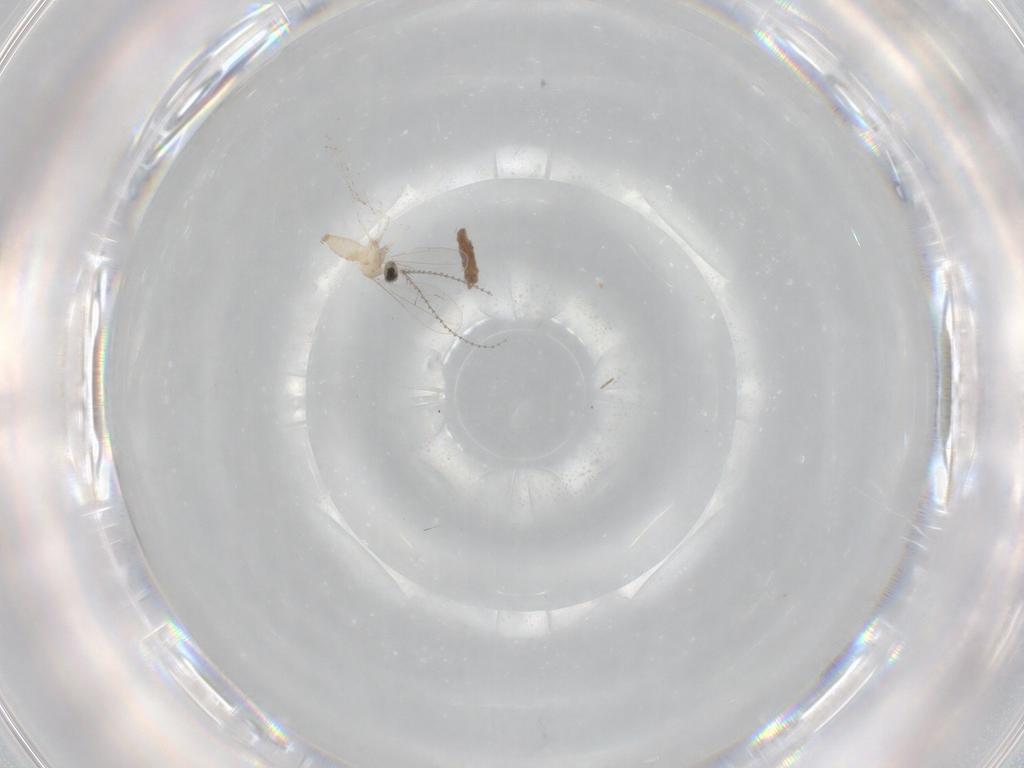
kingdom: Animalia
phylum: Arthropoda
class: Insecta
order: Diptera
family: Cecidomyiidae
